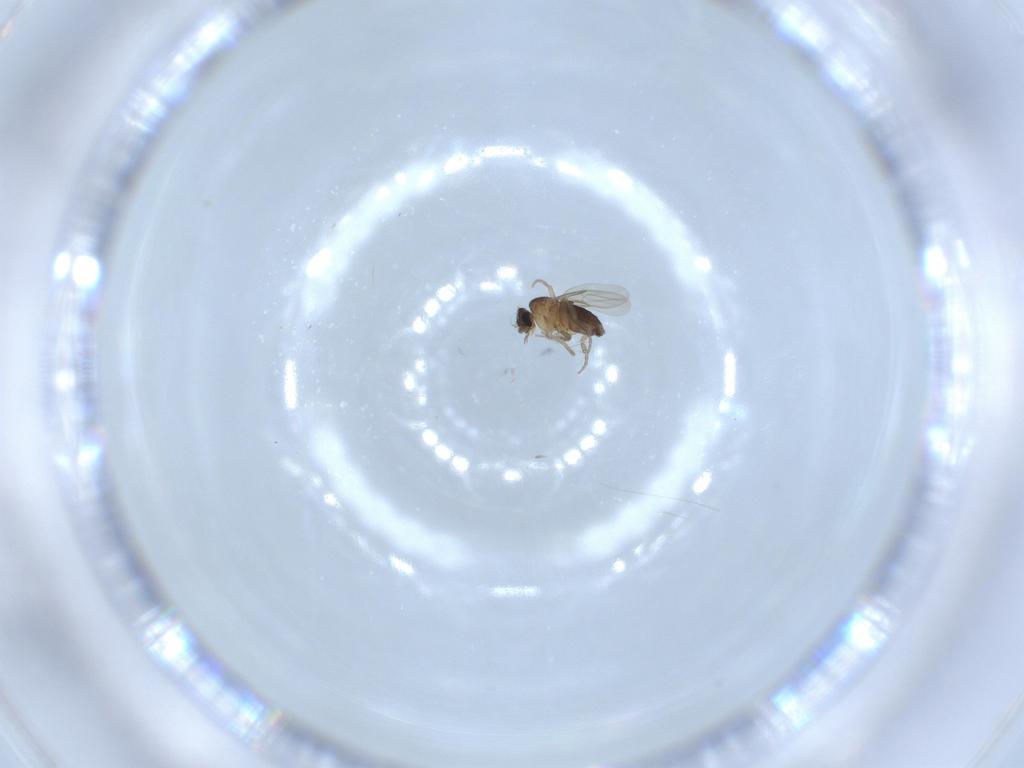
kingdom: Animalia
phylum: Arthropoda
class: Insecta
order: Diptera
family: Phoridae
